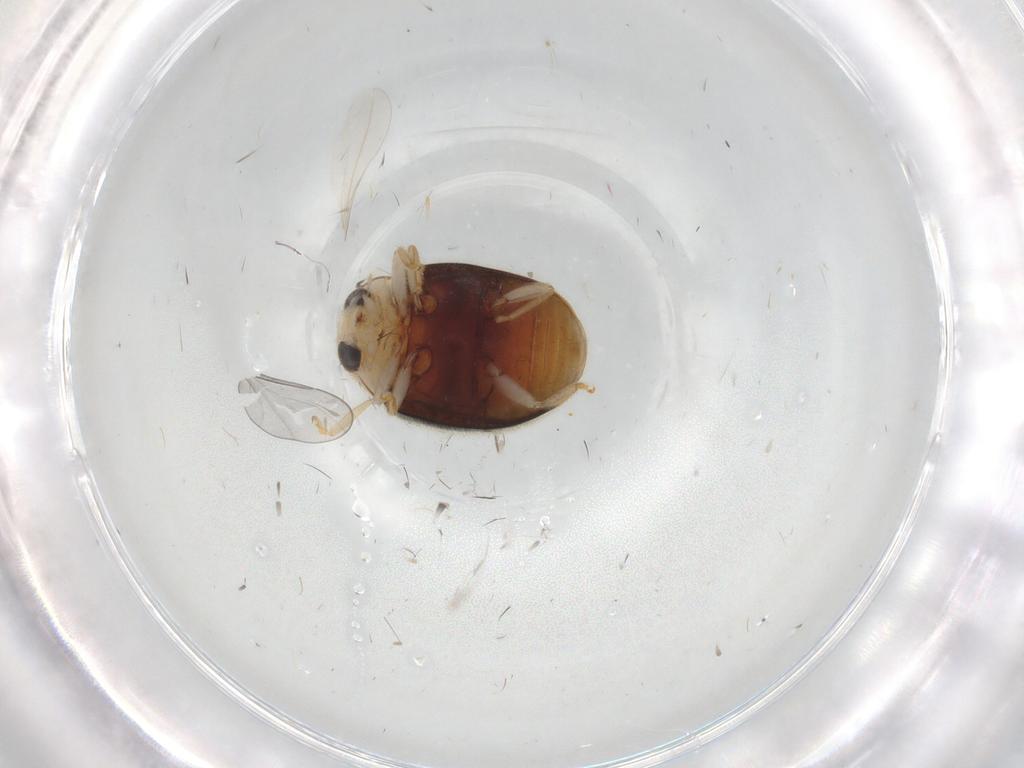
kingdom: Animalia
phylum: Arthropoda
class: Insecta
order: Coleoptera
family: Coccinellidae
